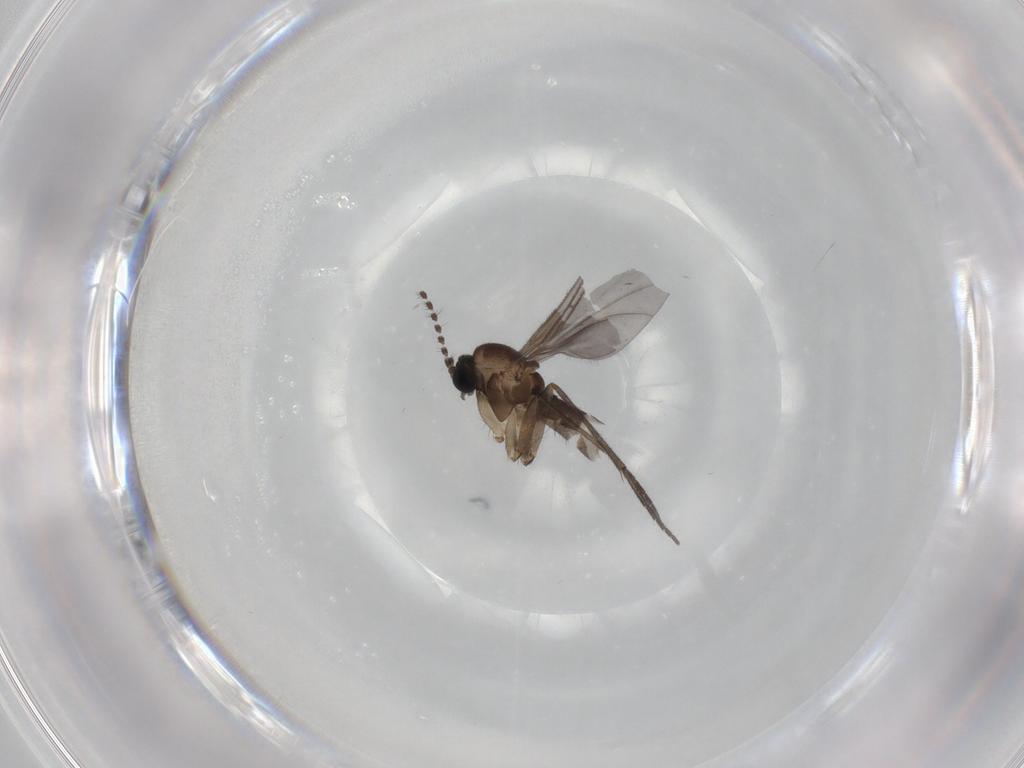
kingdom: Animalia
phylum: Arthropoda
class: Insecta
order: Diptera
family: Sciaridae
